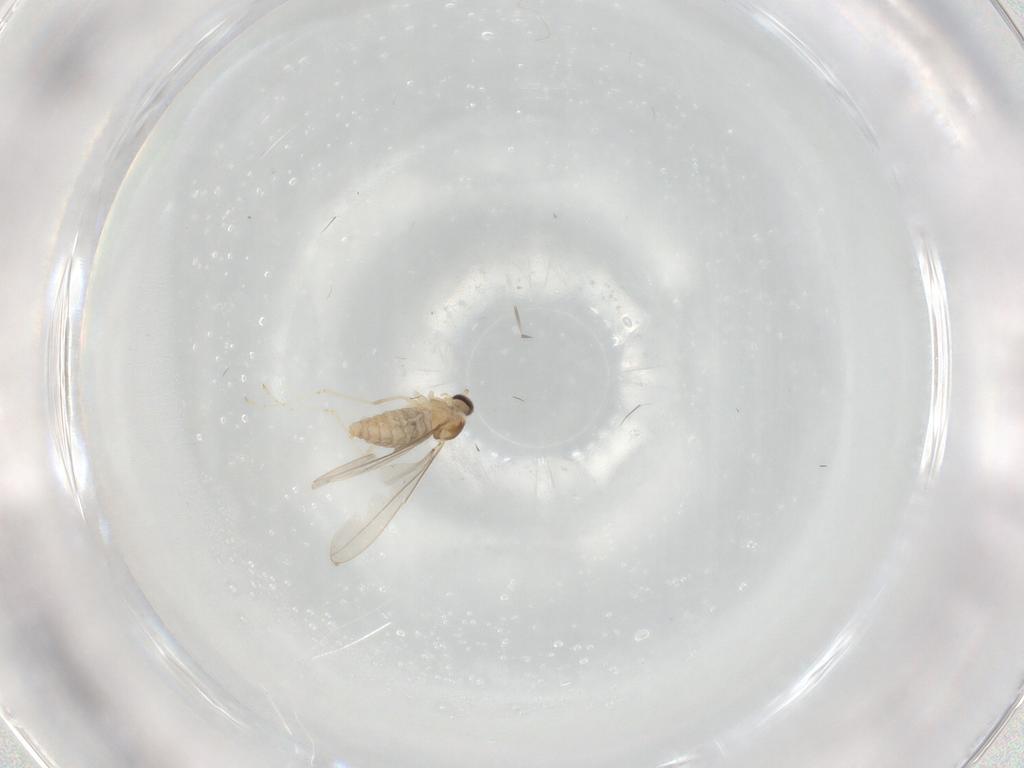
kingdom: Animalia
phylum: Arthropoda
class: Insecta
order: Diptera
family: Cecidomyiidae
